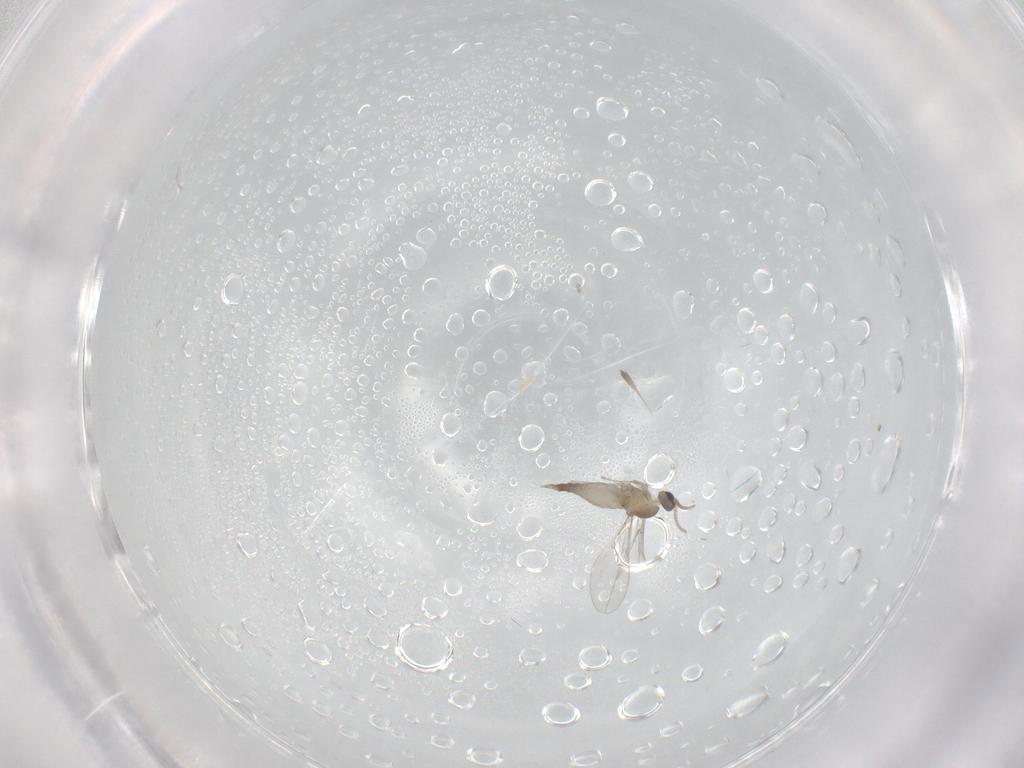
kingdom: Animalia
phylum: Arthropoda
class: Insecta
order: Diptera
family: Cecidomyiidae
